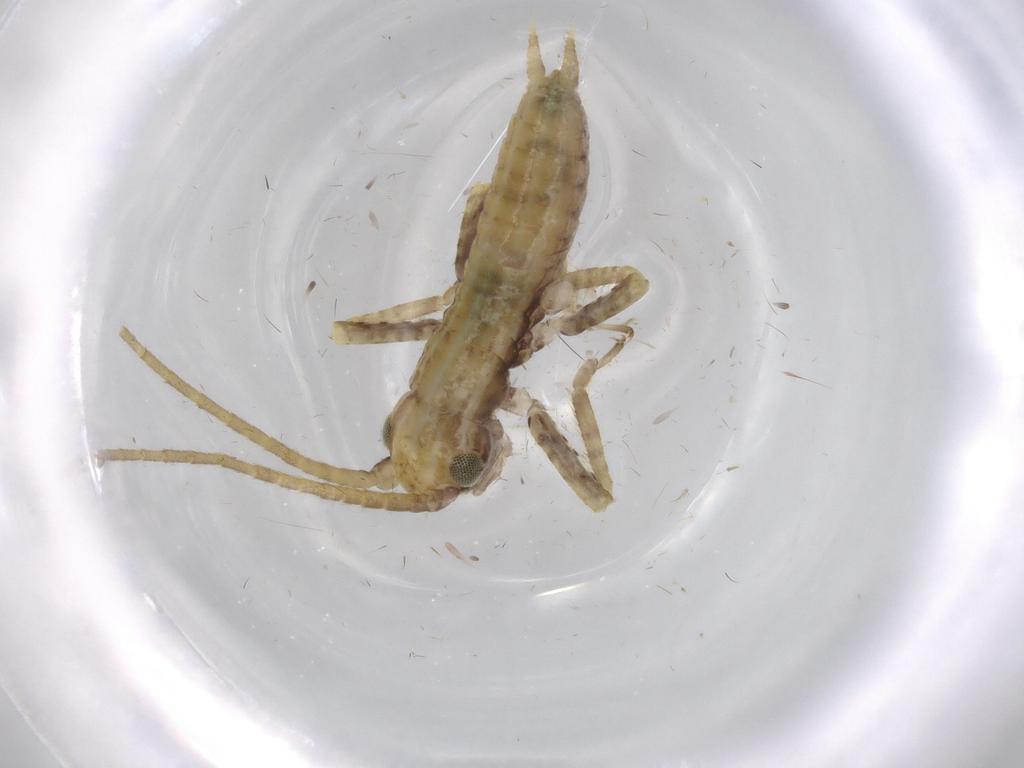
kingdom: Animalia
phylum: Arthropoda
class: Insecta
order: Orthoptera
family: Gryllidae
